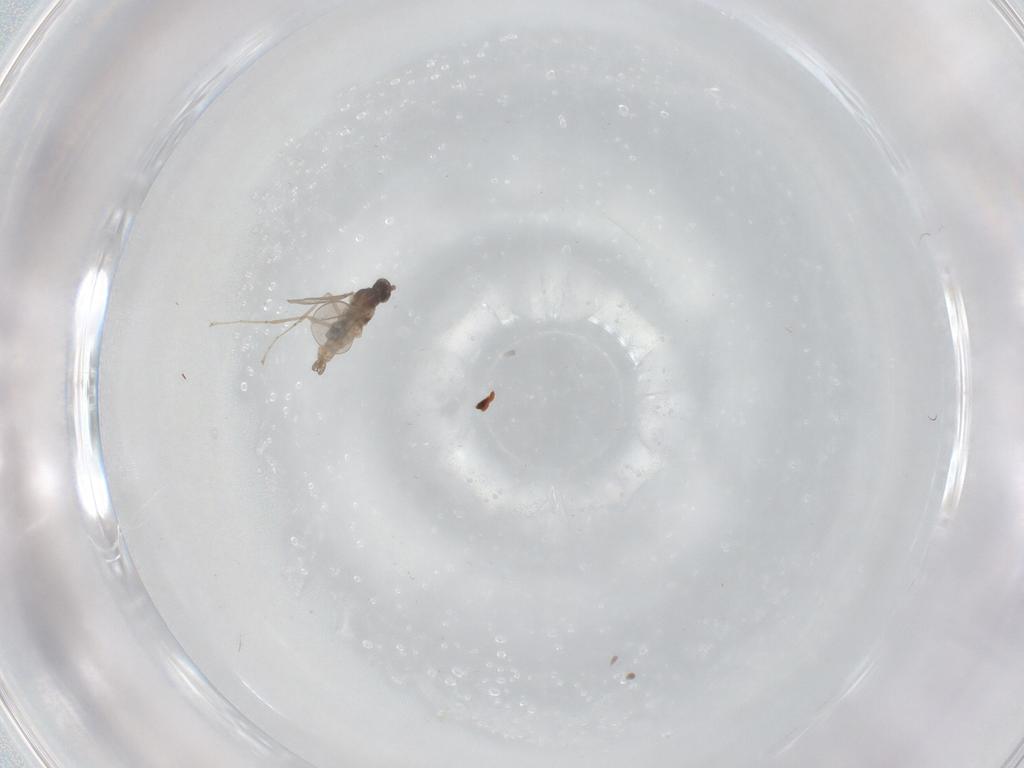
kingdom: Animalia
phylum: Arthropoda
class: Insecta
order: Diptera
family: Cecidomyiidae
